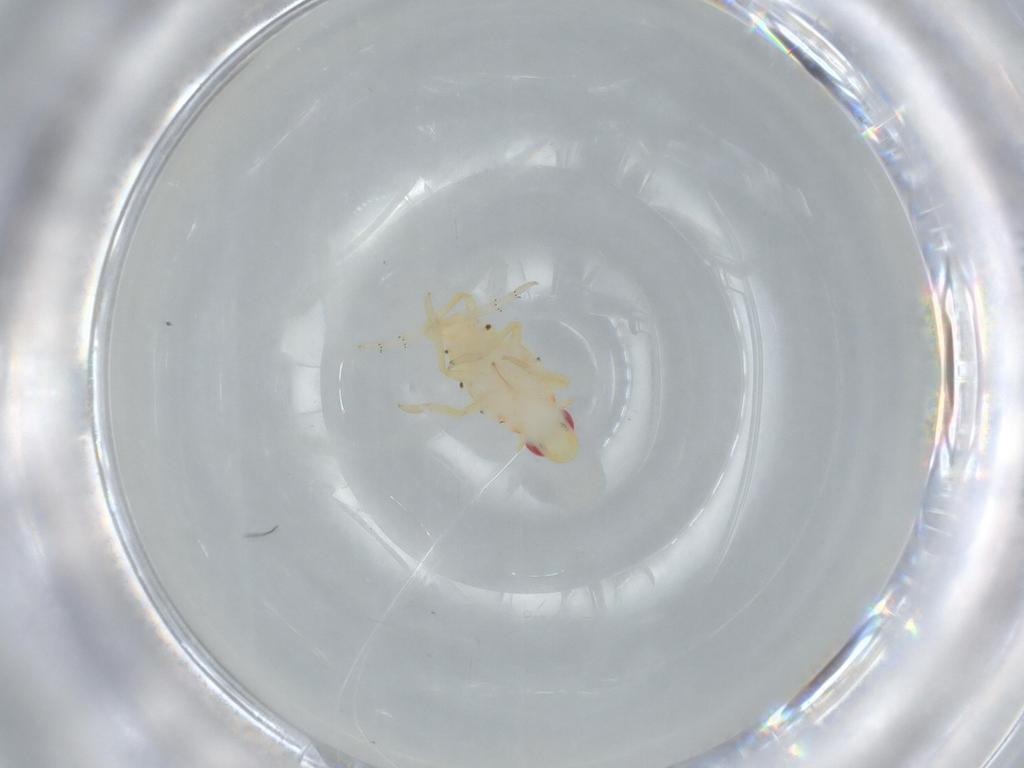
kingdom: Animalia
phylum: Arthropoda
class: Insecta
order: Hemiptera
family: Tropiduchidae
